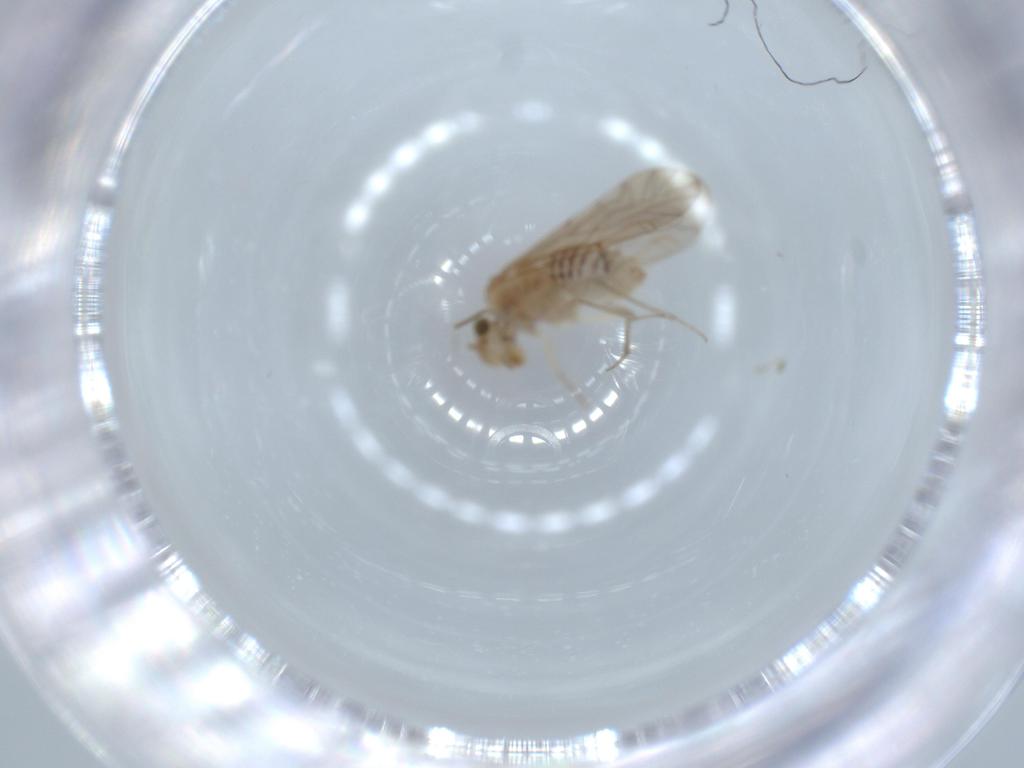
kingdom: Animalia
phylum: Arthropoda
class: Insecta
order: Psocodea
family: Lachesillidae
